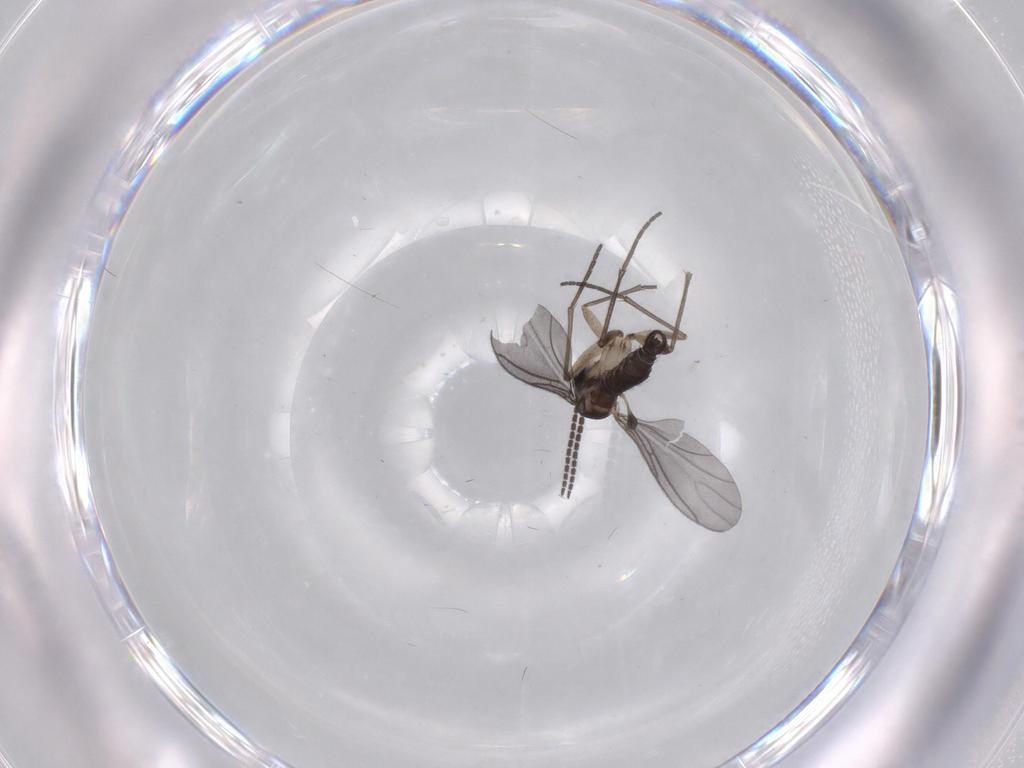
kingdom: Animalia
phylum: Arthropoda
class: Insecta
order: Diptera
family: Sciaridae
